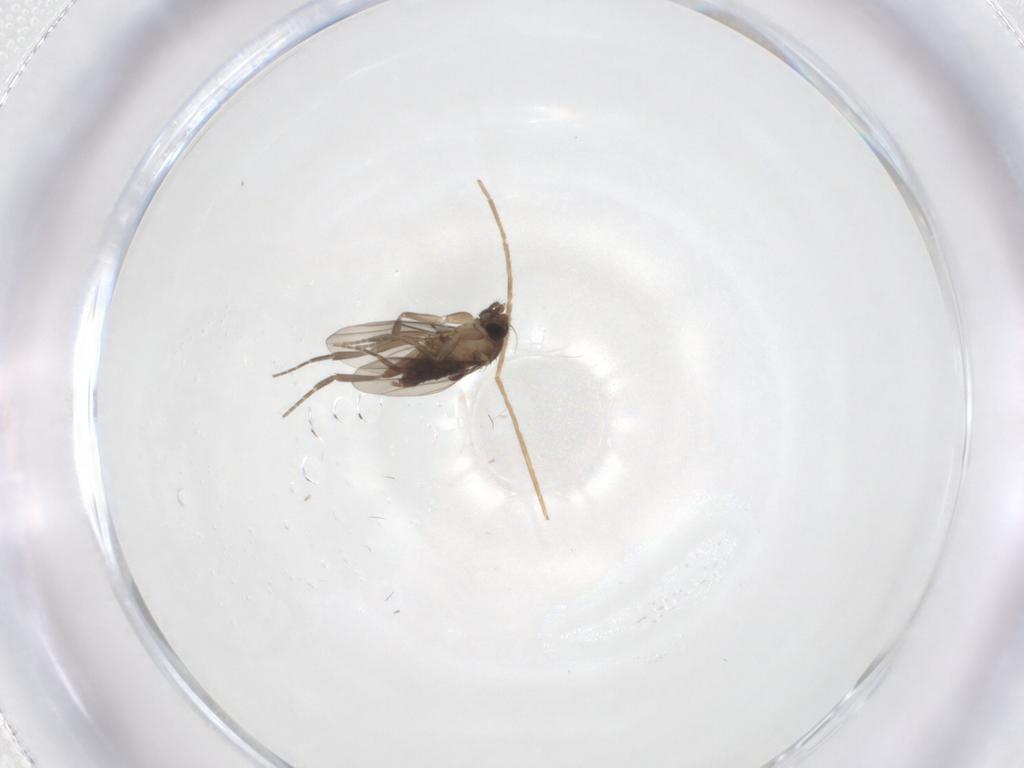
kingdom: Animalia
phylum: Arthropoda
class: Insecta
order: Diptera
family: Chironomidae
